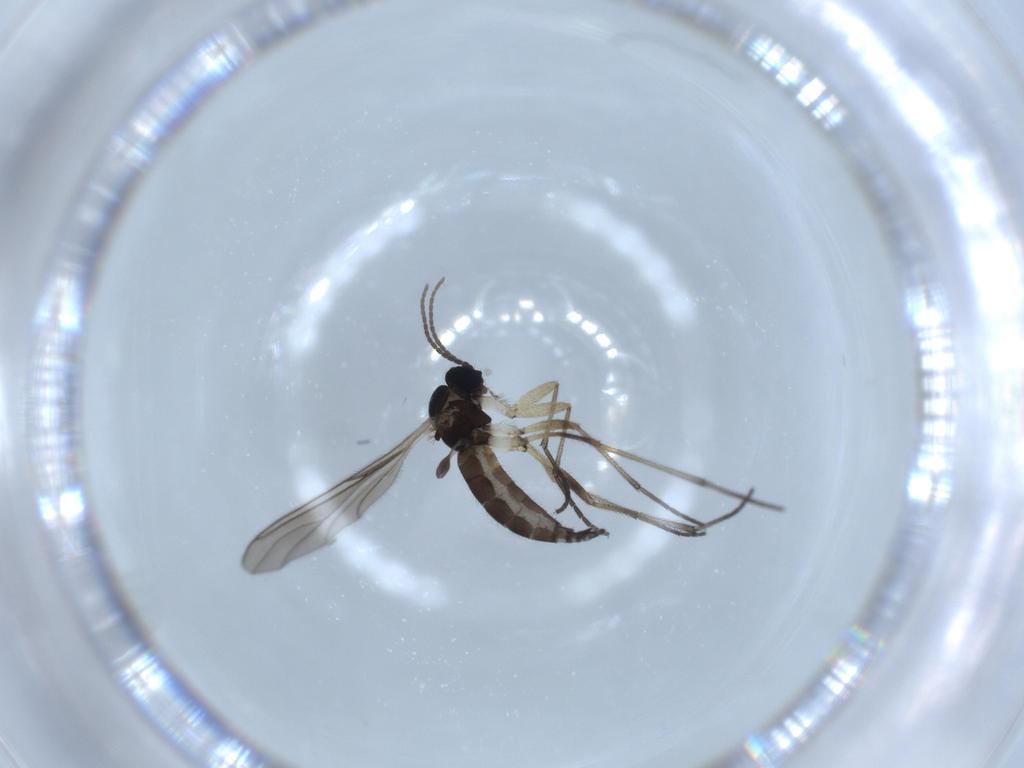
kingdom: Animalia
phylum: Arthropoda
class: Insecta
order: Diptera
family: Sciaridae
